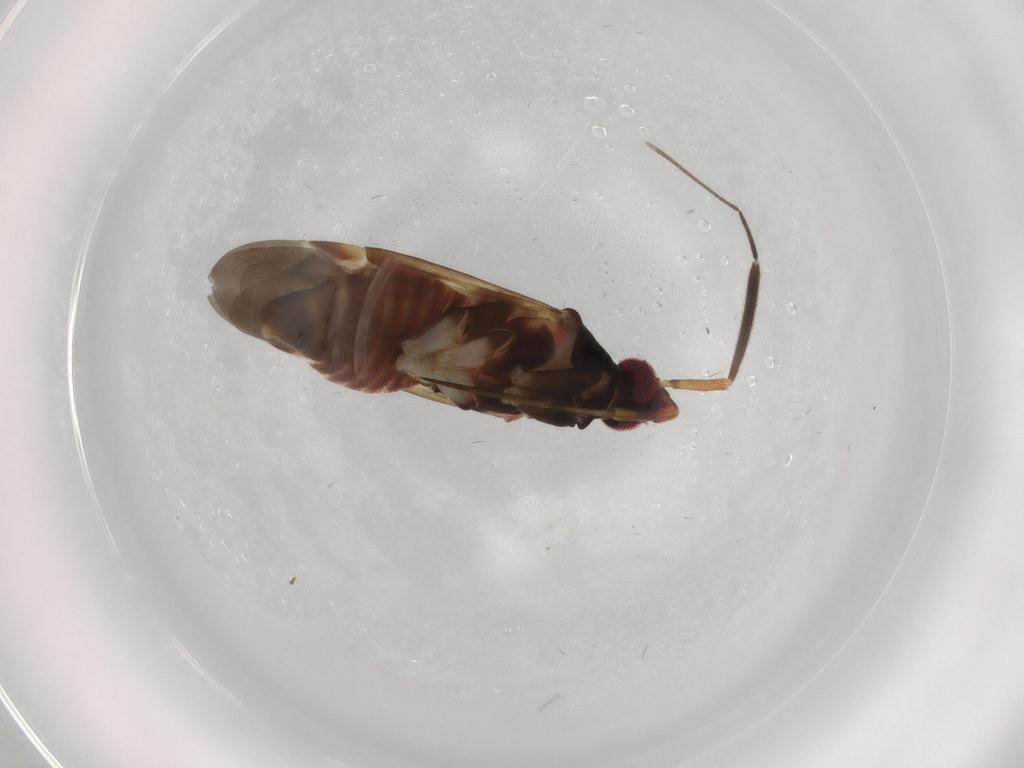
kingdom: Animalia
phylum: Arthropoda
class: Insecta
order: Hemiptera
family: Miridae
